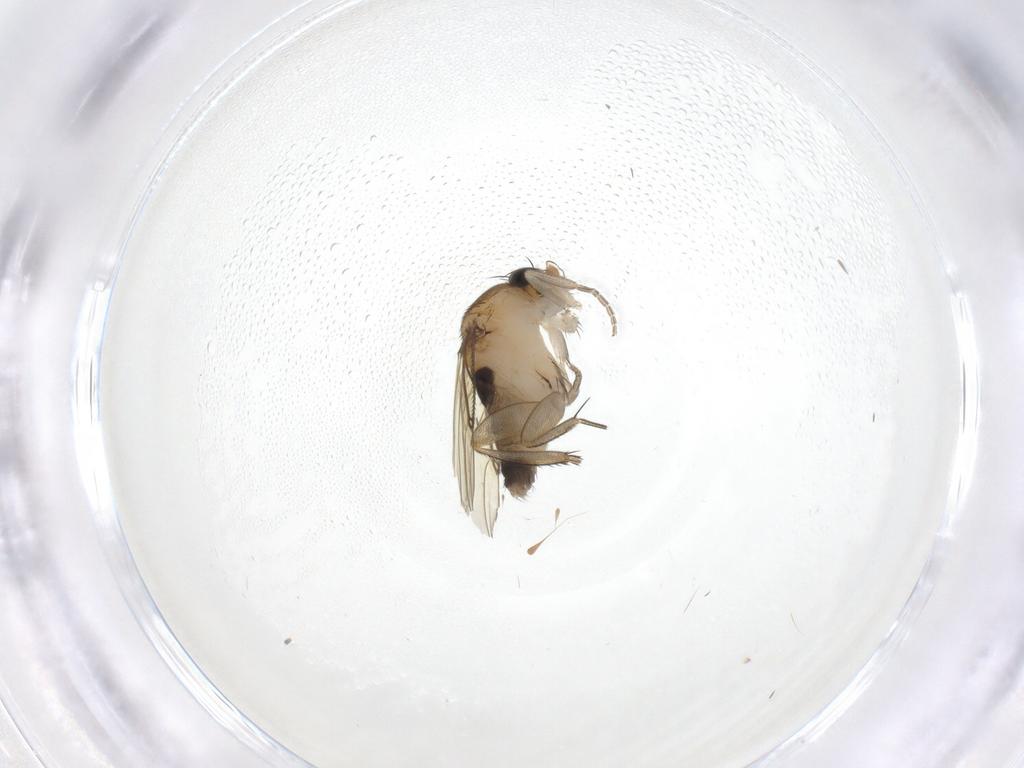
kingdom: Animalia
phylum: Arthropoda
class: Insecta
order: Diptera
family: Phoridae
